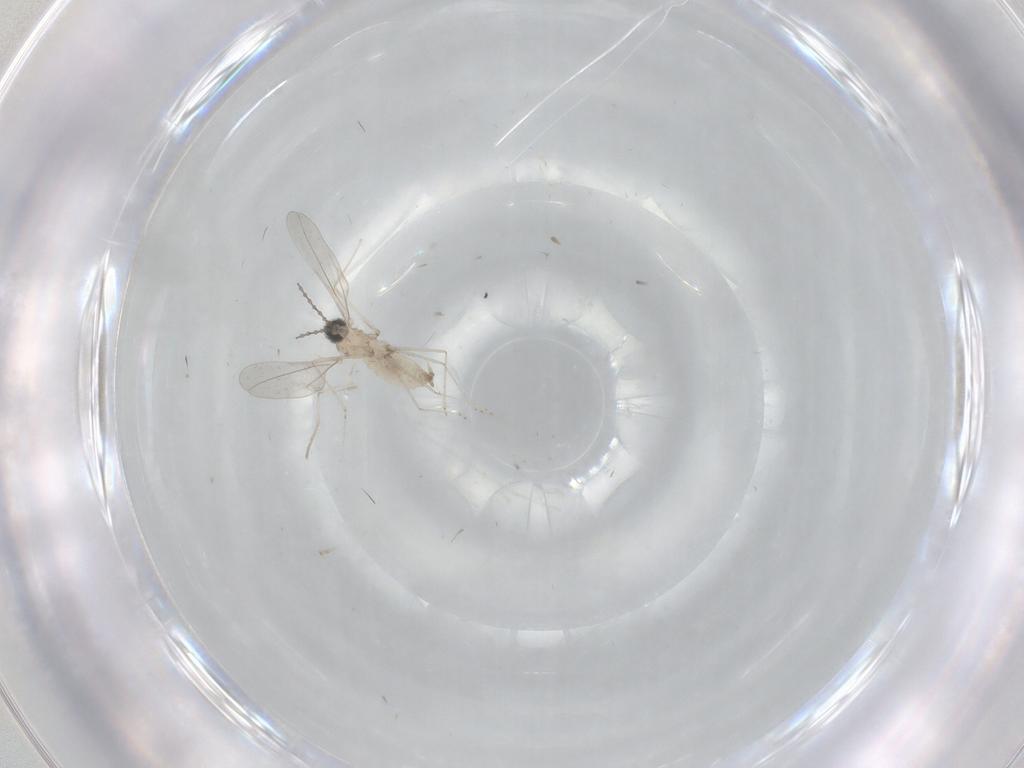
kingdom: Animalia
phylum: Arthropoda
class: Insecta
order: Diptera
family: Cecidomyiidae
